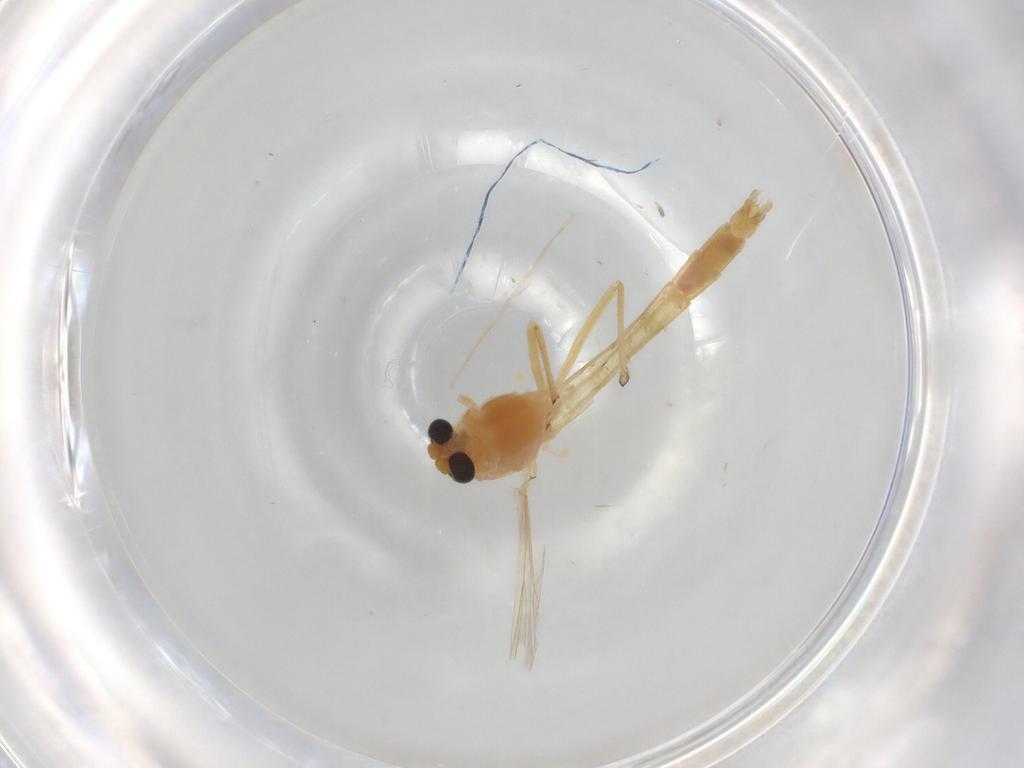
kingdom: Animalia
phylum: Arthropoda
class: Insecta
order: Diptera
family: Chironomidae
